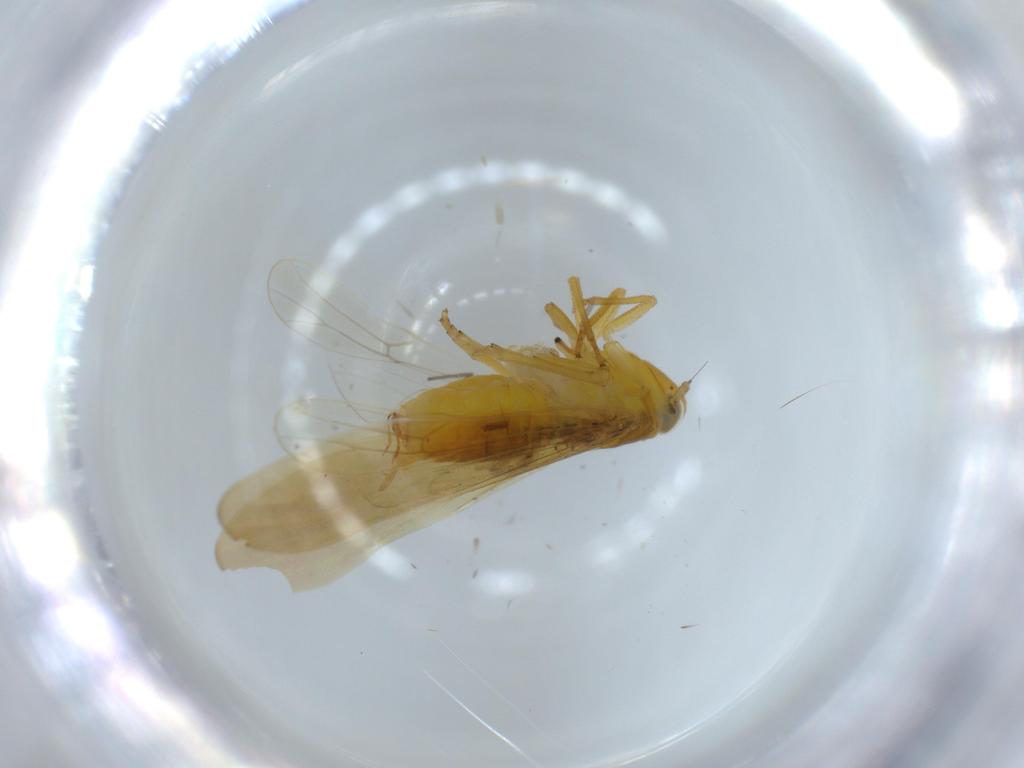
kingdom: Animalia
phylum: Arthropoda
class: Insecta
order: Hemiptera
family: Delphacidae
